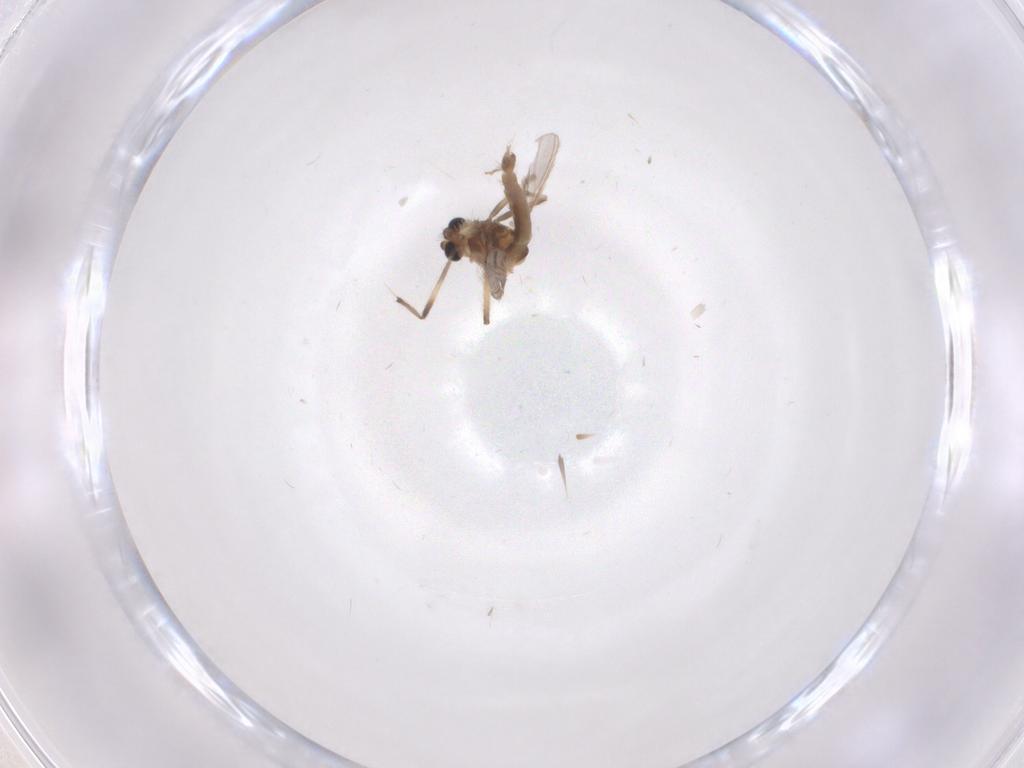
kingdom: Animalia
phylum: Arthropoda
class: Insecta
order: Diptera
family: Chironomidae
